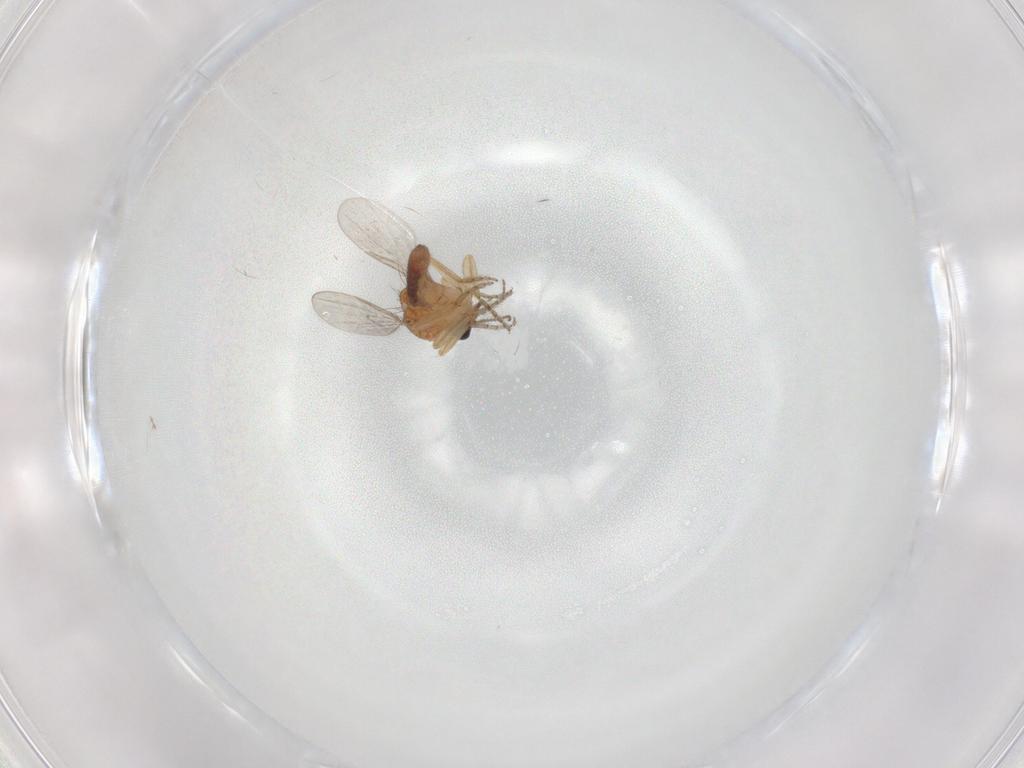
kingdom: Animalia
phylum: Arthropoda
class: Insecta
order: Diptera
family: Ceratopogonidae
